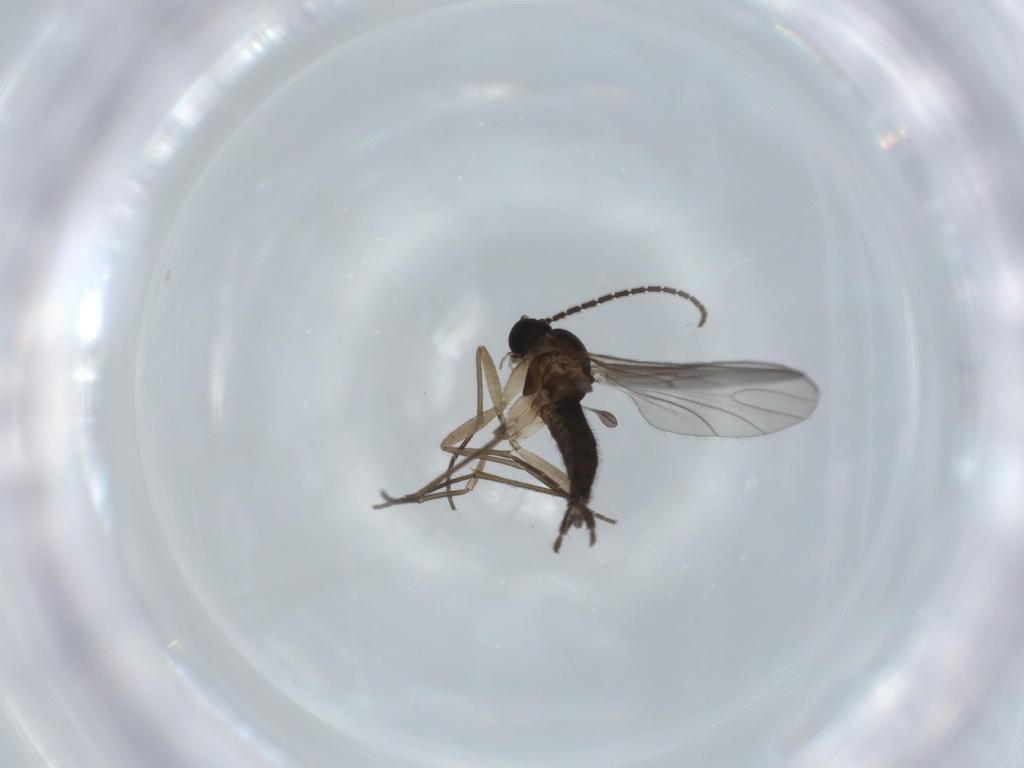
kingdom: Animalia
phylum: Arthropoda
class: Insecta
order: Diptera
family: Sciaridae
